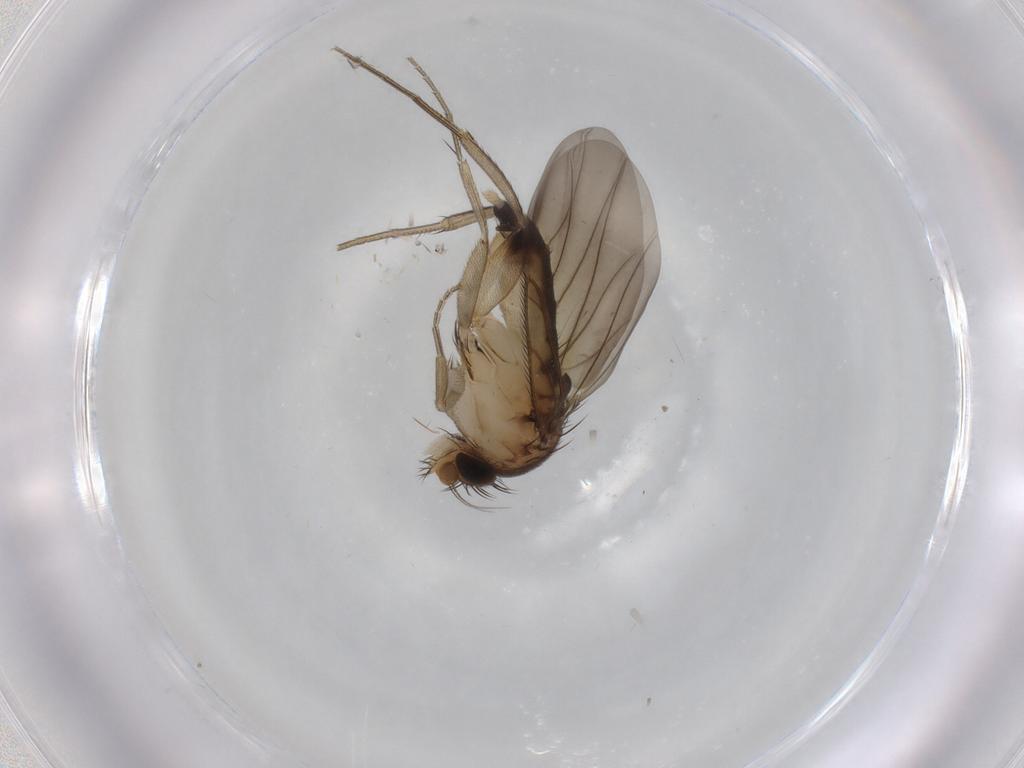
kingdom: Animalia
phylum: Arthropoda
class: Insecta
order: Diptera
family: Phoridae
